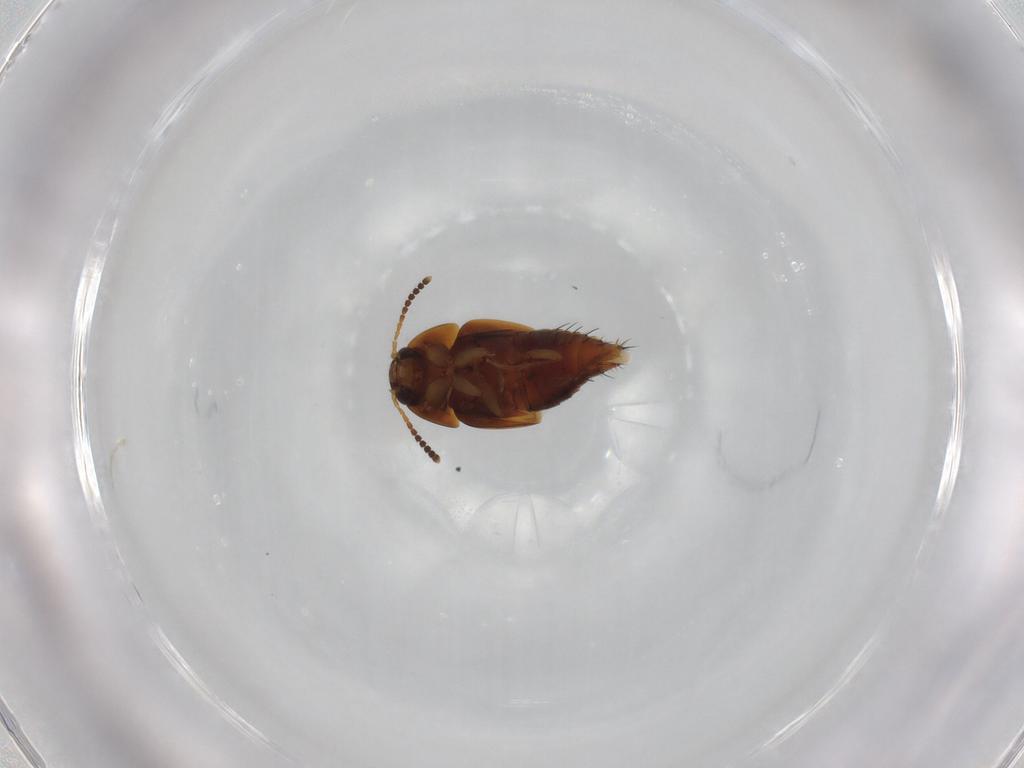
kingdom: Animalia
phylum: Arthropoda
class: Insecta
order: Coleoptera
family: Staphylinidae
